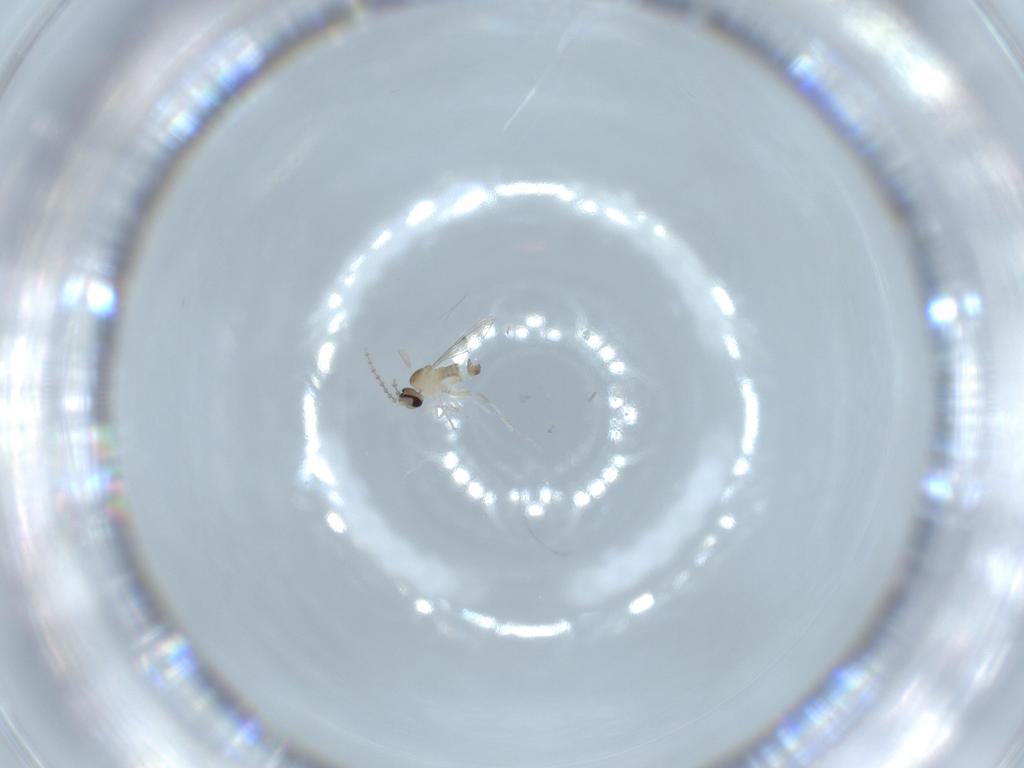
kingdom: Animalia
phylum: Arthropoda
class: Insecta
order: Diptera
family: Cecidomyiidae
